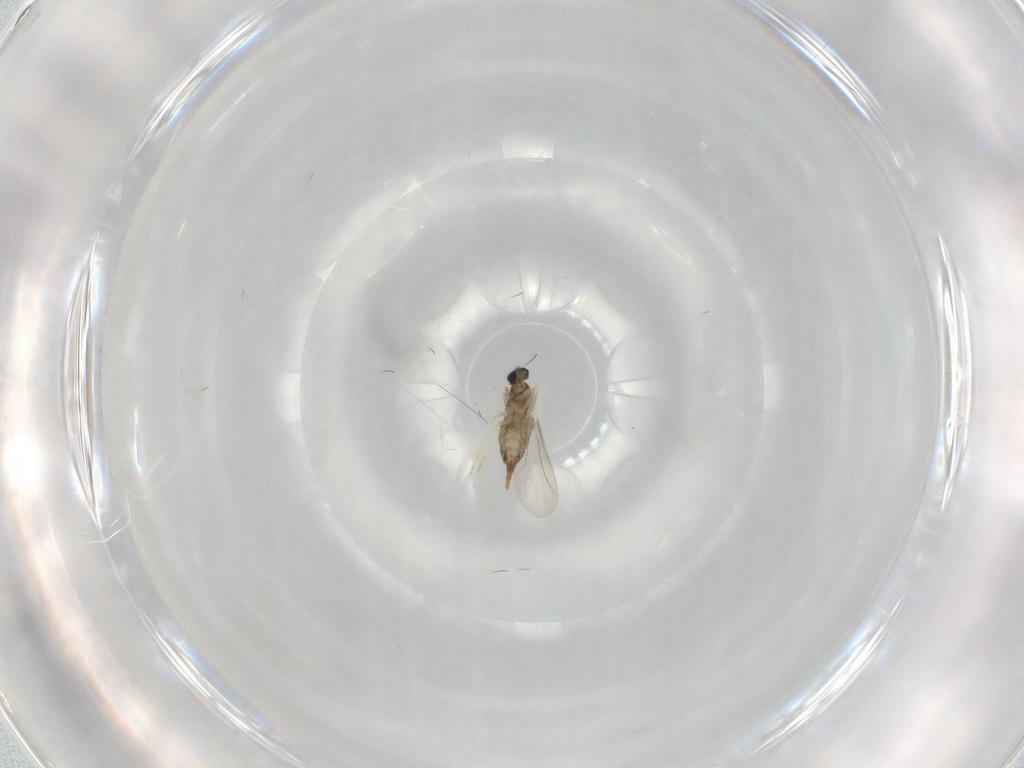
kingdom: Animalia
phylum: Arthropoda
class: Insecta
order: Diptera
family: Cecidomyiidae
